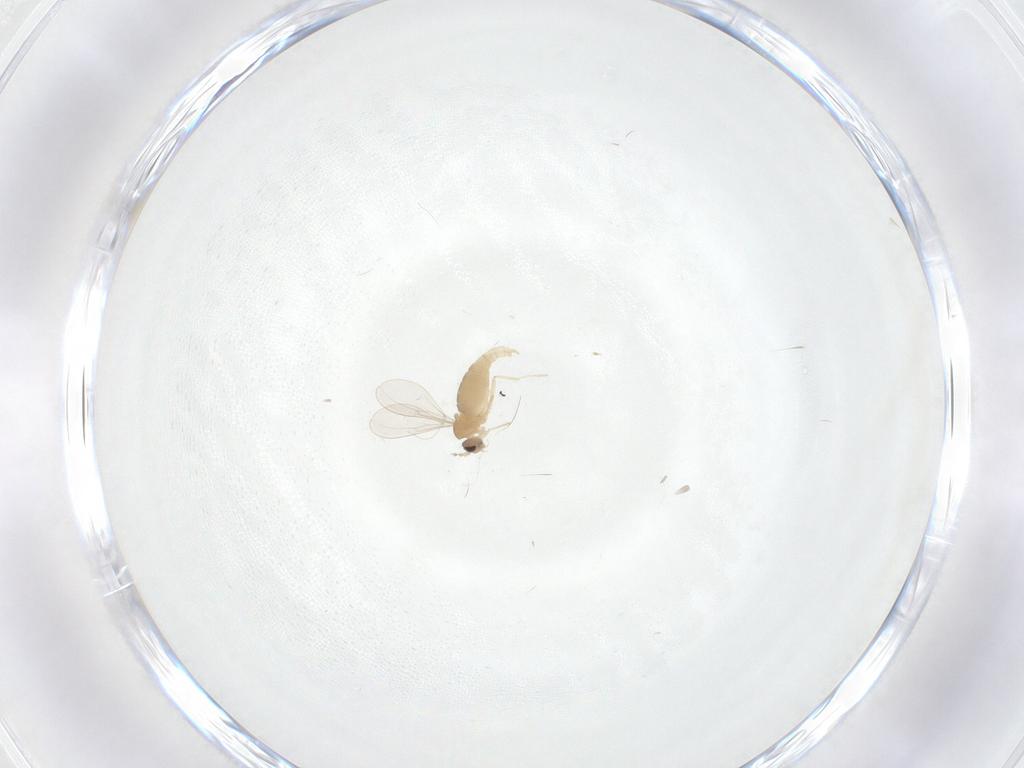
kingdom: Animalia
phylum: Arthropoda
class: Insecta
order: Diptera
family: Cecidomyiidae
